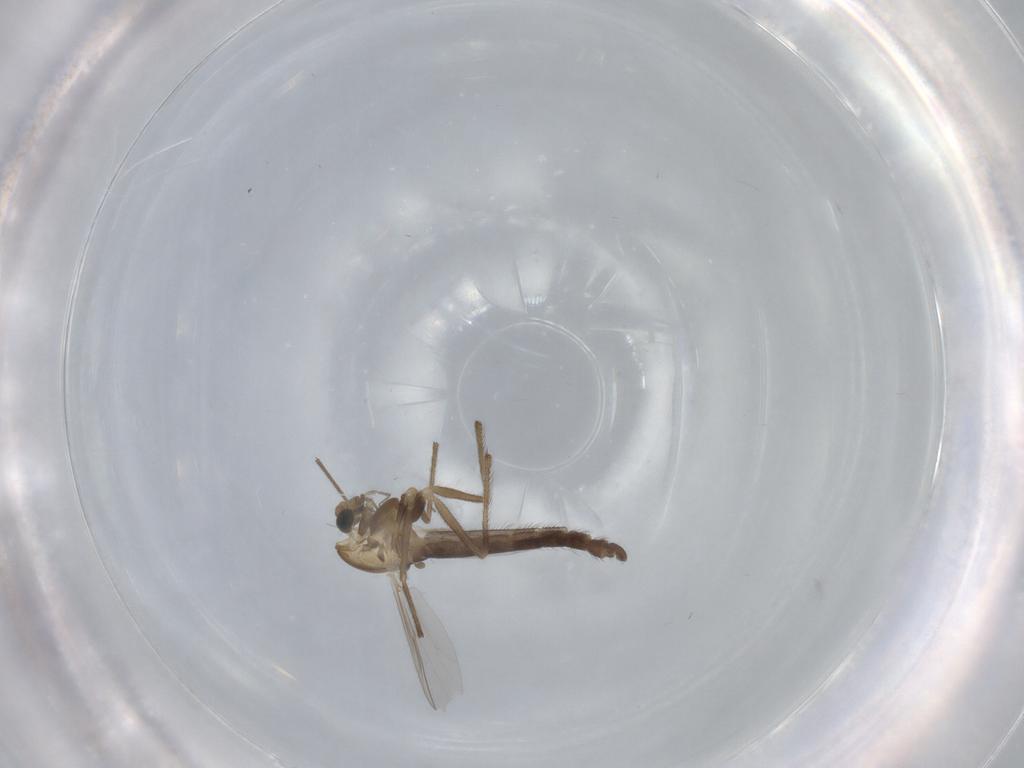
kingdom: Animalia
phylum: Arthropoda
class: Insecta
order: Diptera
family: Chironomidae
